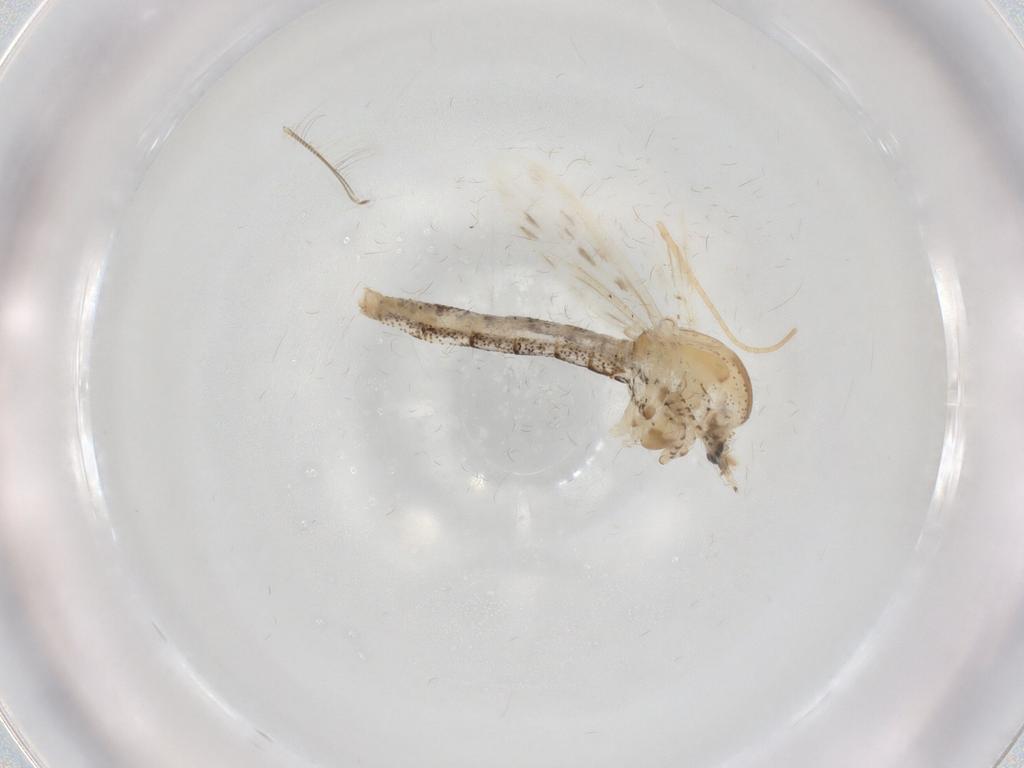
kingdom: Animalia
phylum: Arthropoda
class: Insecta
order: Diptera
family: Chaoboridae
